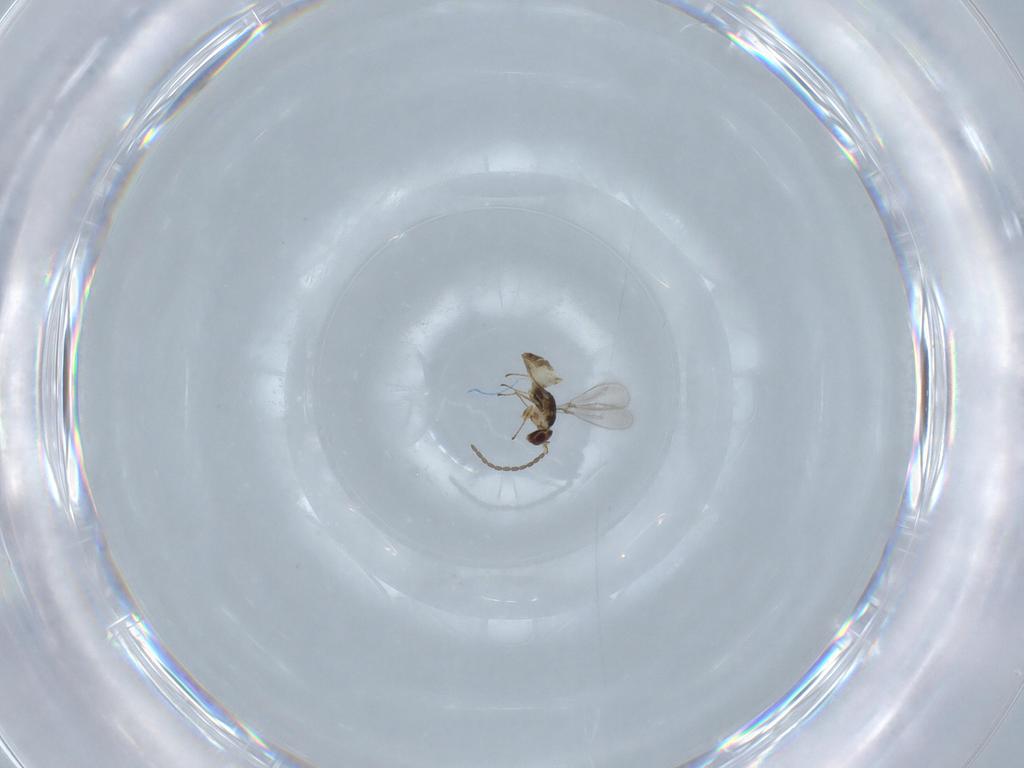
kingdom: Animalia
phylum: Arthropoda
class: Insecta
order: Hymenoptera
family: Mymaridae
